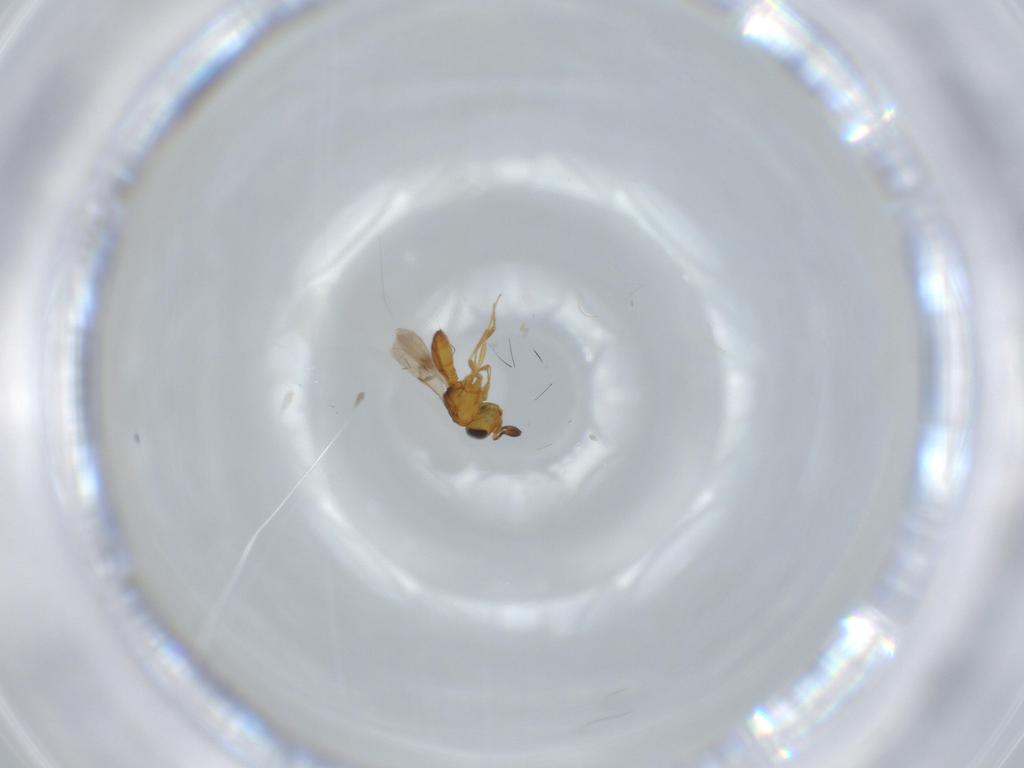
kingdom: Animalia
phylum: Arthropoda
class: Insecta
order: Hymenoptera
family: Scelionidae
